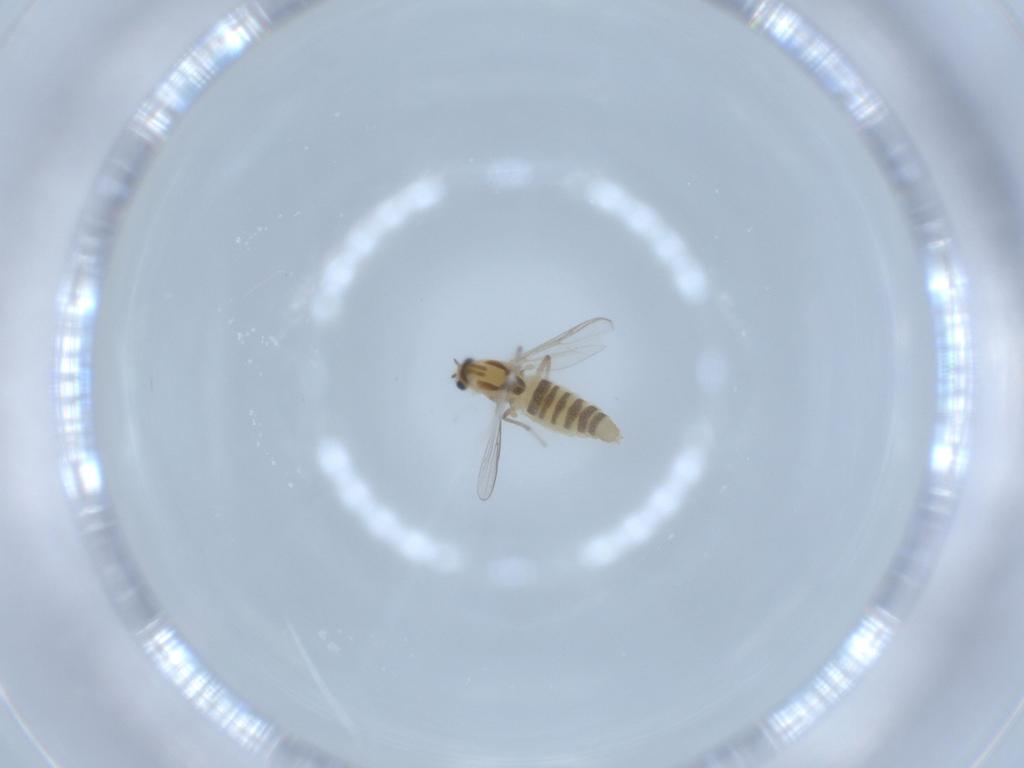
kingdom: Animalia
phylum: Arthropoda
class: Insecta
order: Diptera
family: Chironomidae
